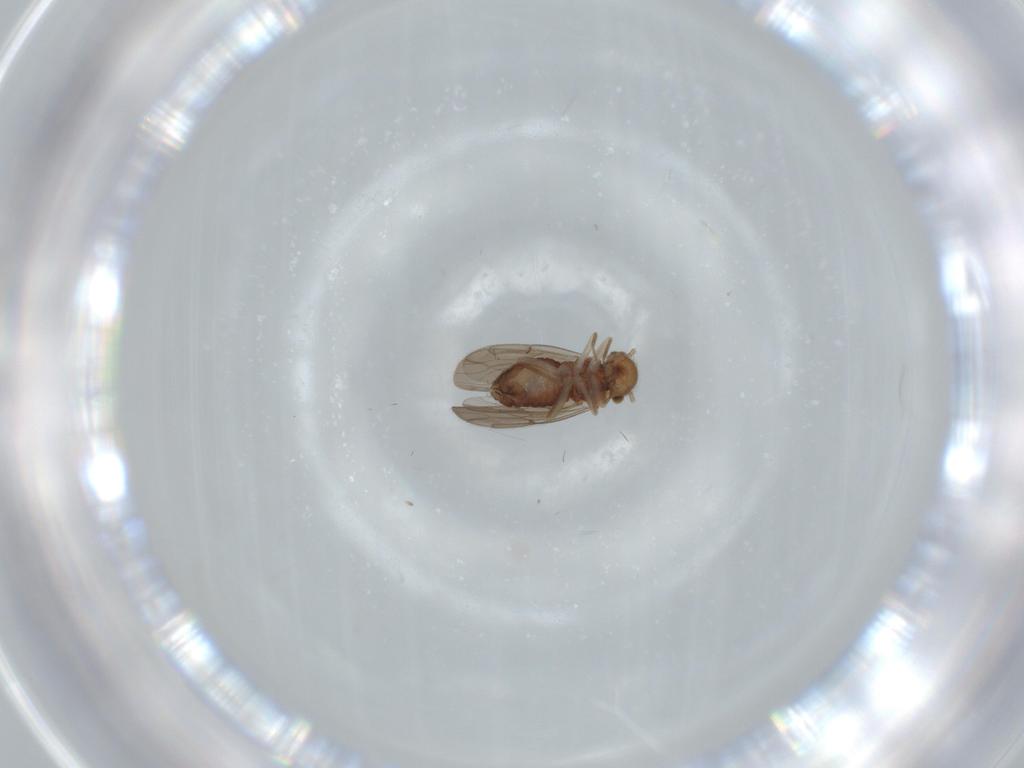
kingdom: Animalia
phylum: Arthropoda
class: Insecta
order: Psocodea
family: Ectopsocidae
